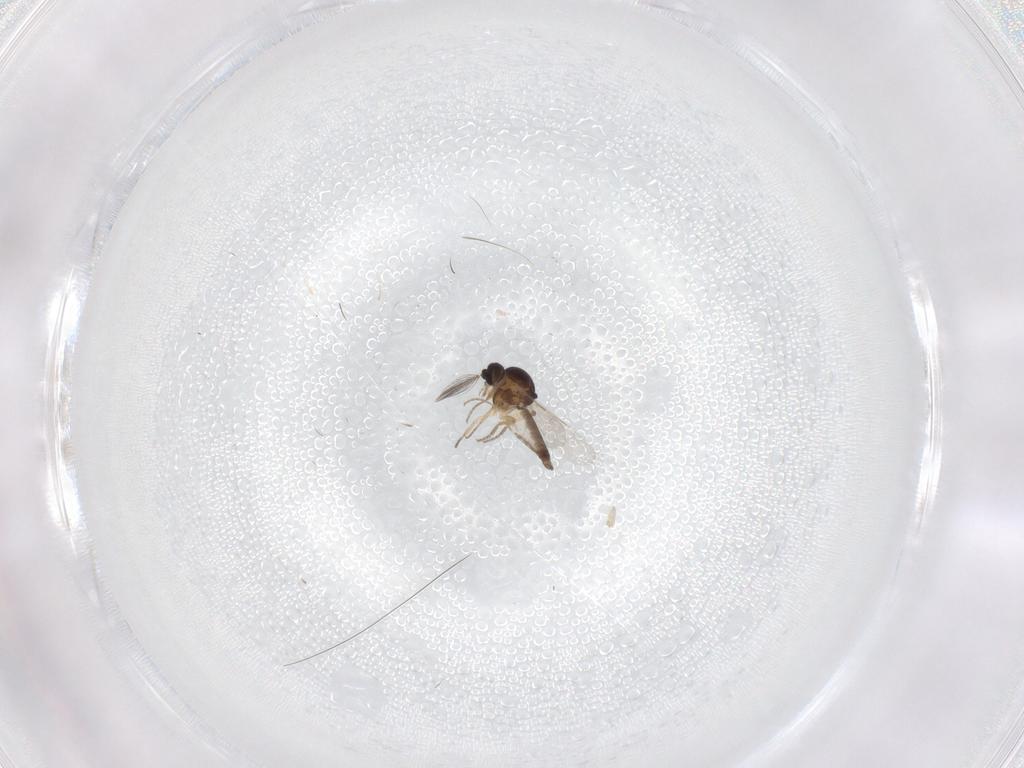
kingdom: Animalia
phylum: Arthropoda
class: Insecta
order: Diptera
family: Ceratopogonidae
